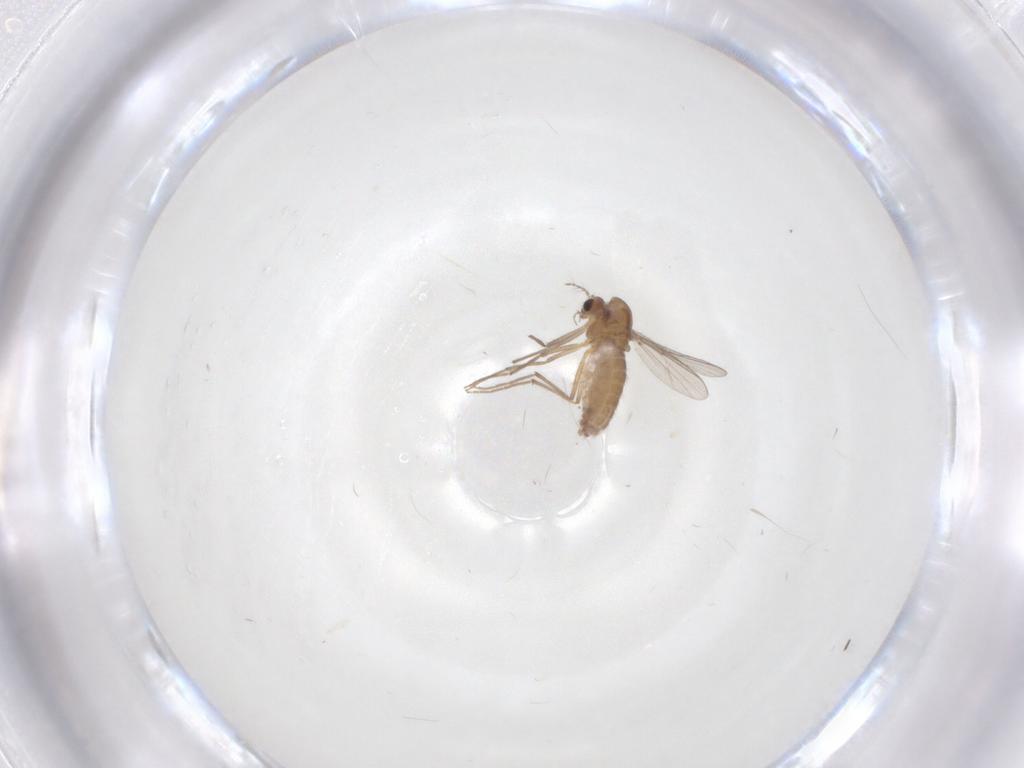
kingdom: Animalia
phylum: Arthropoda
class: Insecta
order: Diptera
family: Chironomidae
